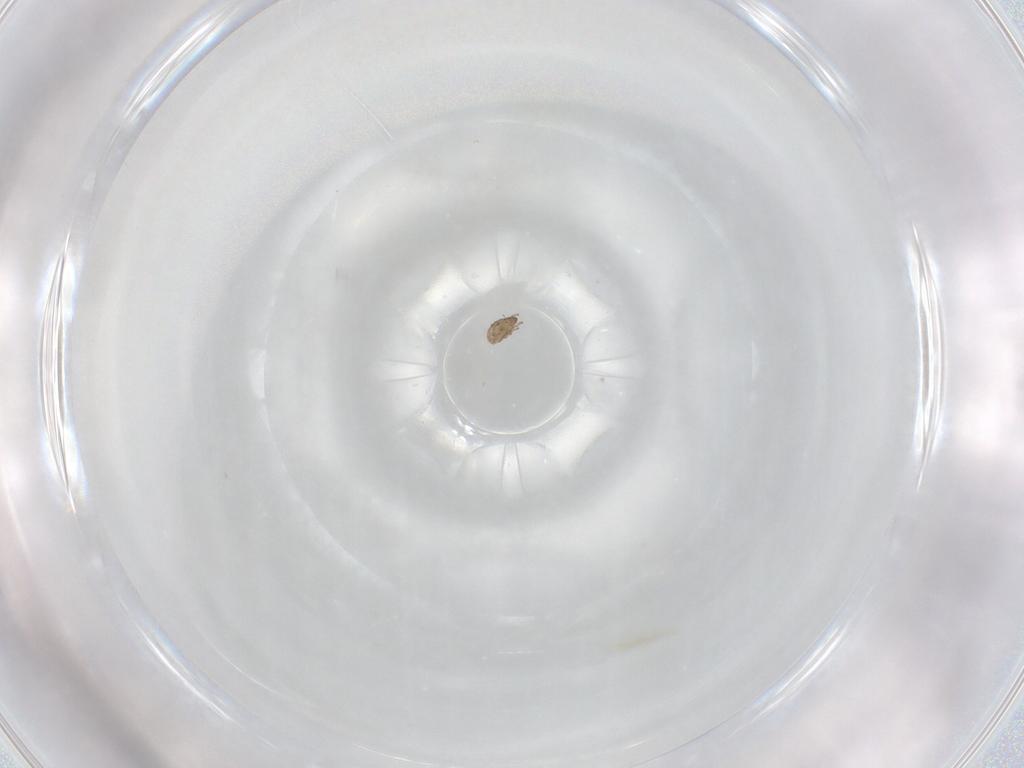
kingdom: Animalia
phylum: Arthropoda
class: Arachnida
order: Sarcoptiformes
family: Tectocepheidae
